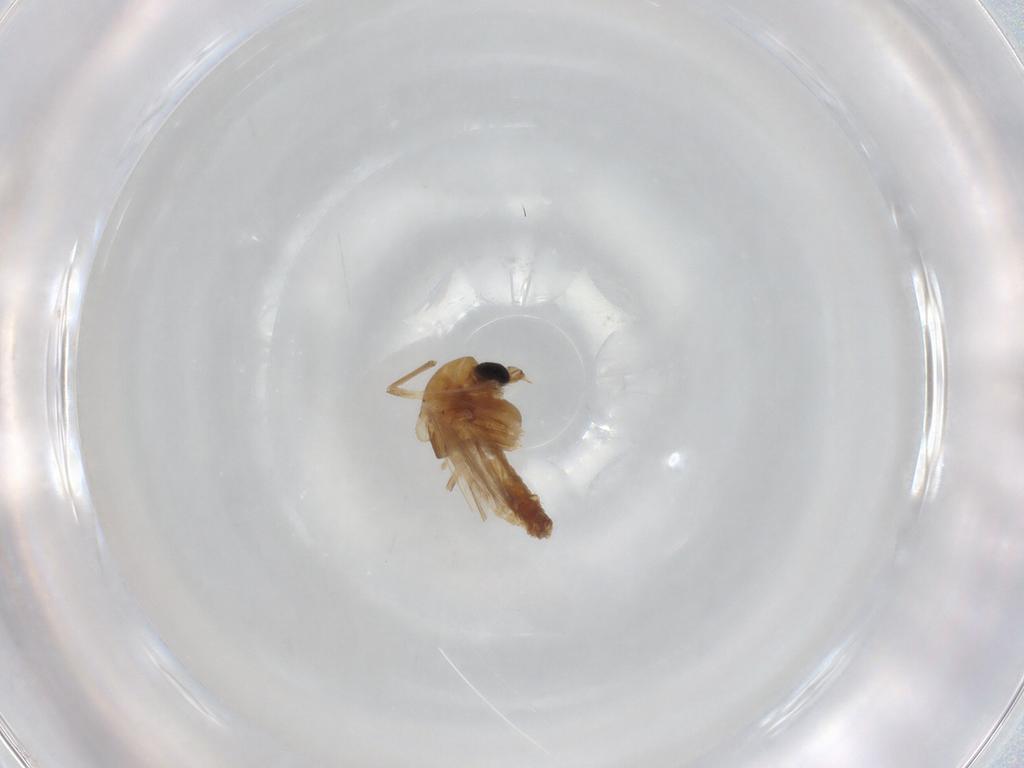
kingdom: Animalia
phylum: Arthropoda
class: Insecta
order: Diptera
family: Chironomidae
